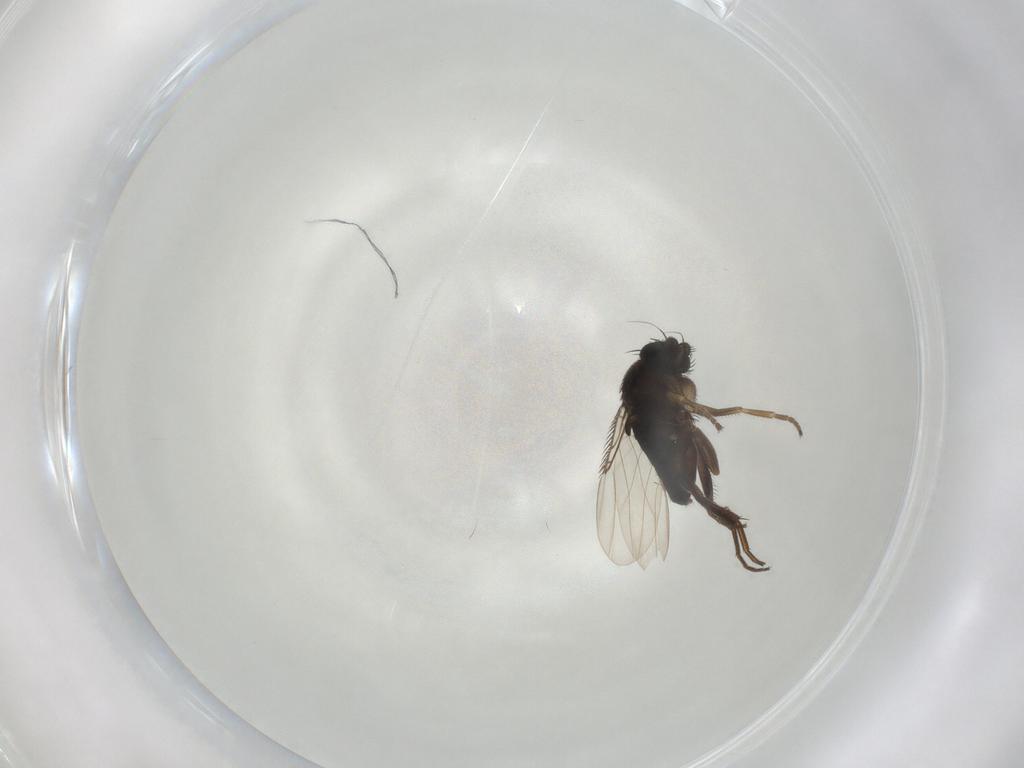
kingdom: Animalia
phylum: Arthropoda
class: Insecta
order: Diptera
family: Phoridae
